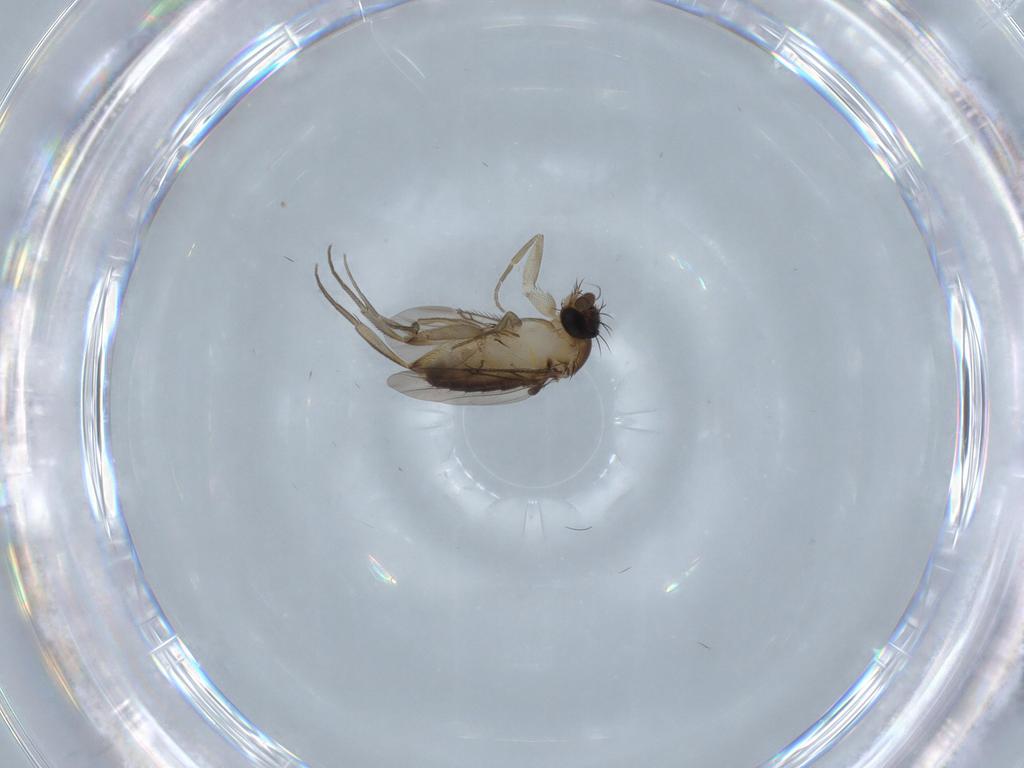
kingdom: Animalia
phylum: Arthropoda
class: Insecta
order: Diptera
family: Phoridae
